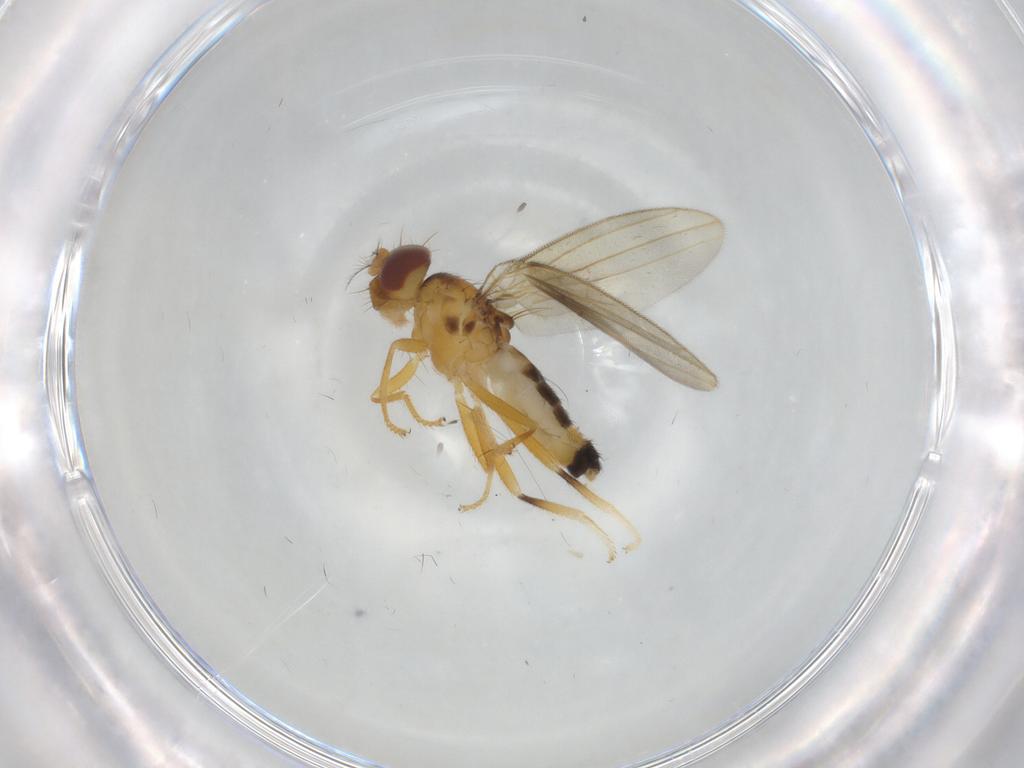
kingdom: Animalia
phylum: Arthropoda
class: Insecta
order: Diptera
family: Periscelididae
